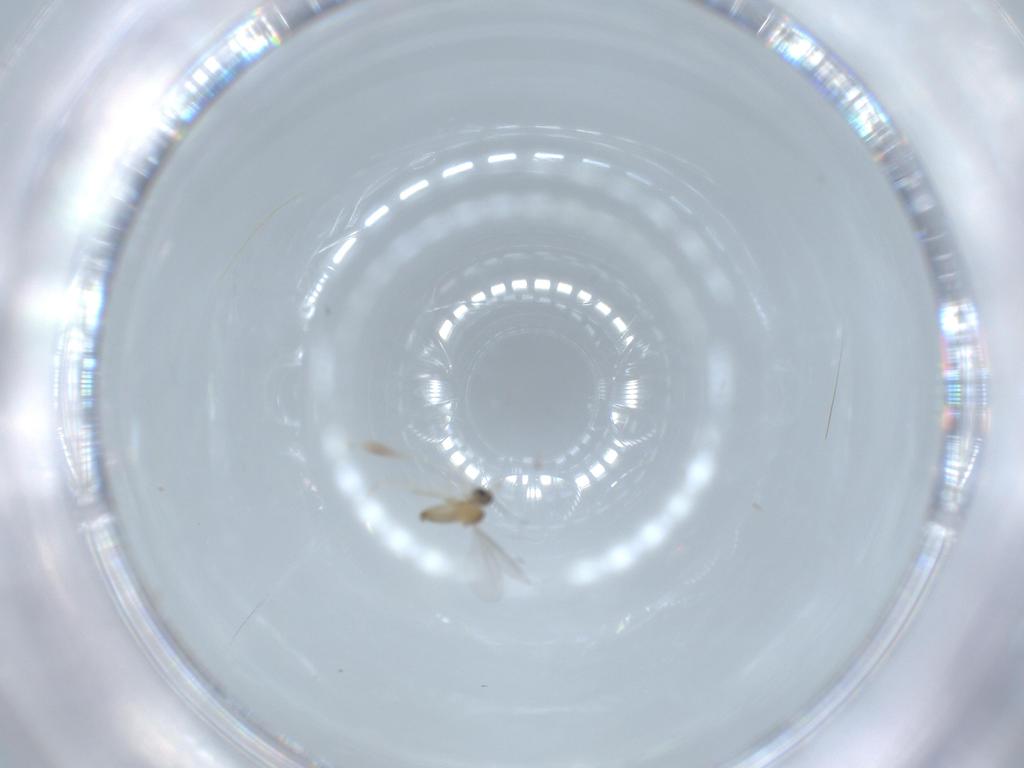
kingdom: Animalia
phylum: Arthropoda
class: Insecta
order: Diptera
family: Cecidomyiidae
